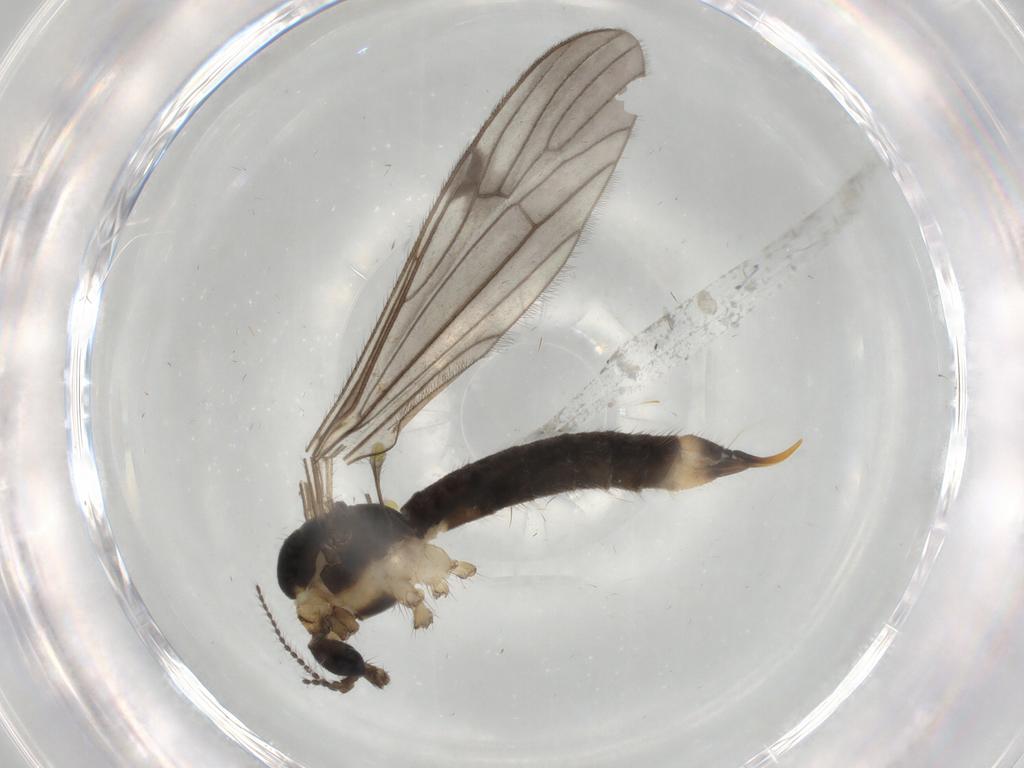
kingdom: Animalia
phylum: Arthropoda
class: Insecta
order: Diptera
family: Limoniidae
